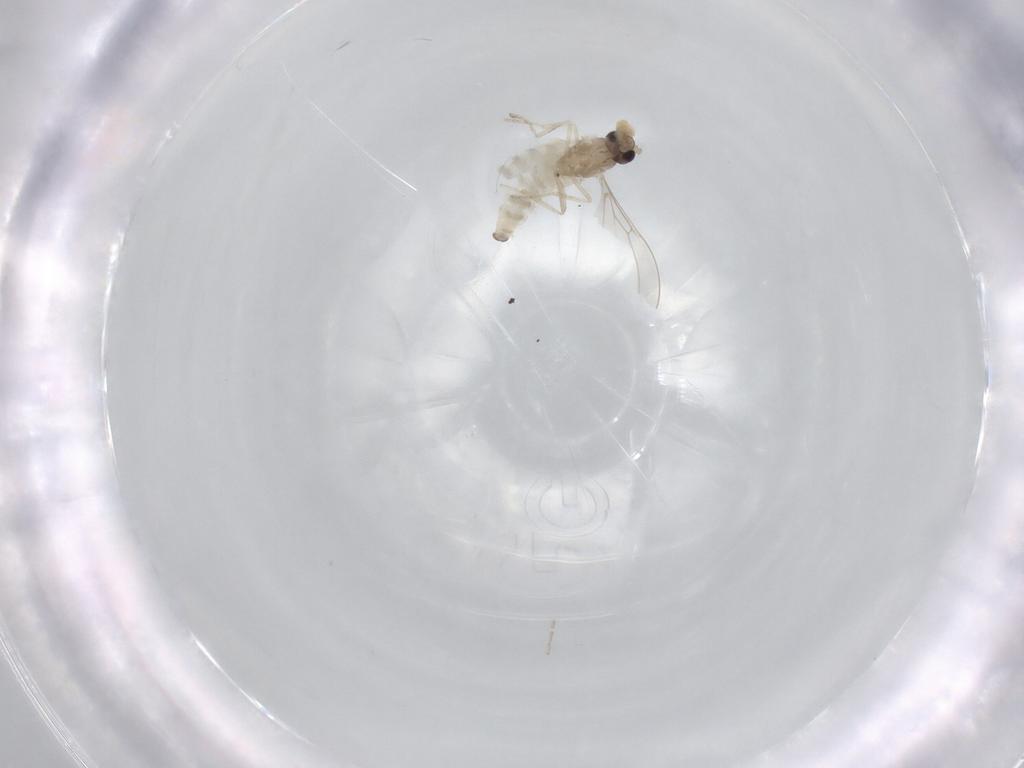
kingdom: Animalia
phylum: Arthropoda
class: Insecta
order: Diptera
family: Cecidomyiidae
